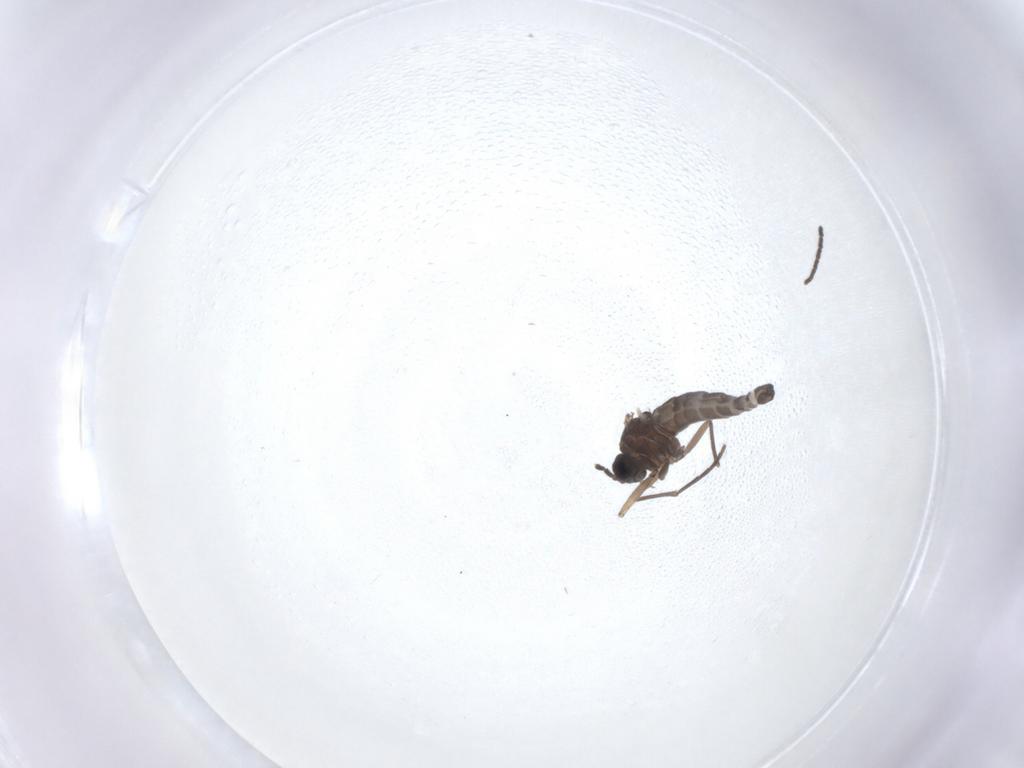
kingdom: Animalia
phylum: Arthropoda
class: Insecta
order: Diptera
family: Sciaridae
